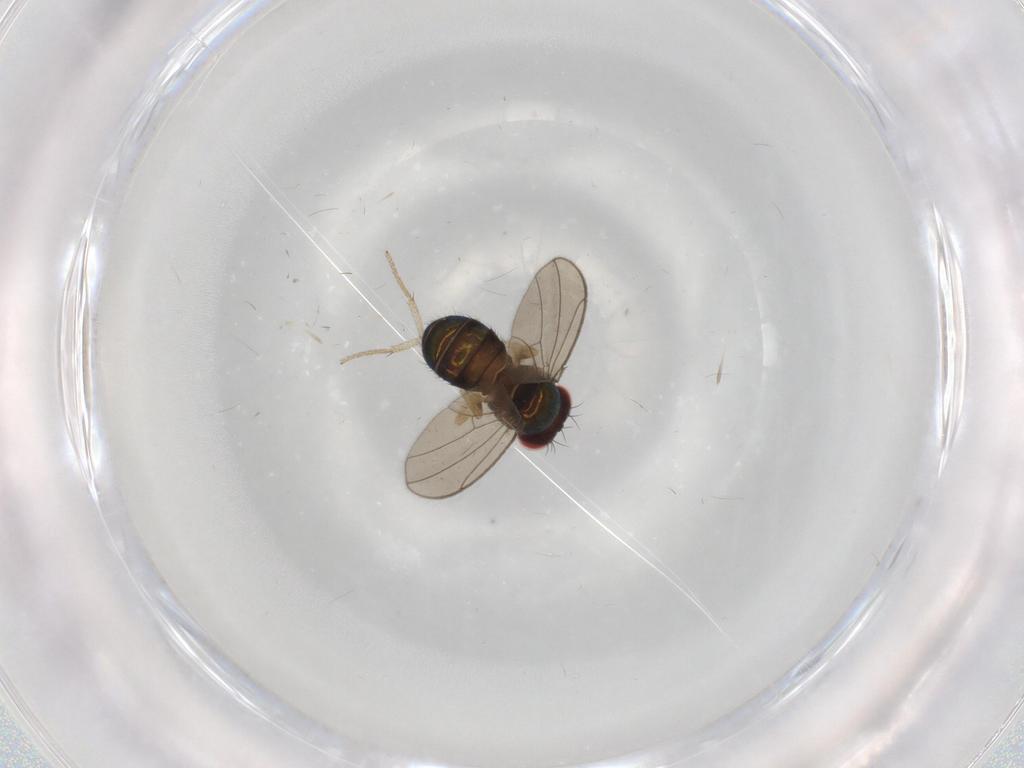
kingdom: Animalia
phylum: Arthropoda
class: Insecta
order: Diptera
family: Drosophilidae
